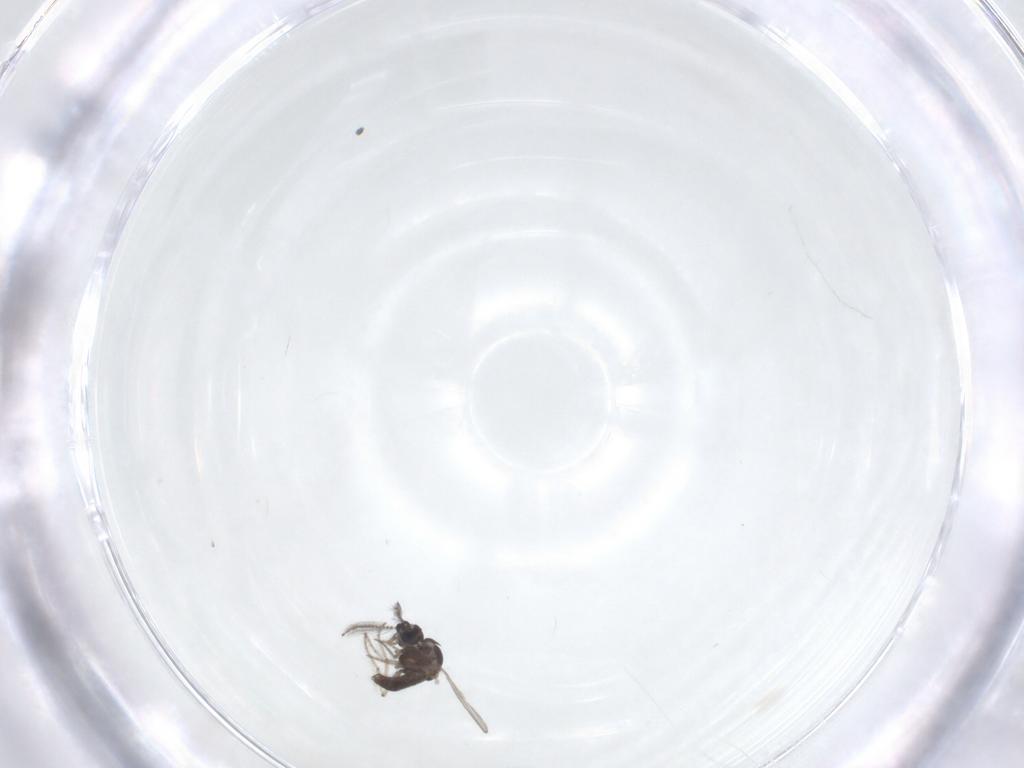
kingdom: Animalia
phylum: Arthropoda
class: Insecta
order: Diptera
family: Ceratopogonidae
